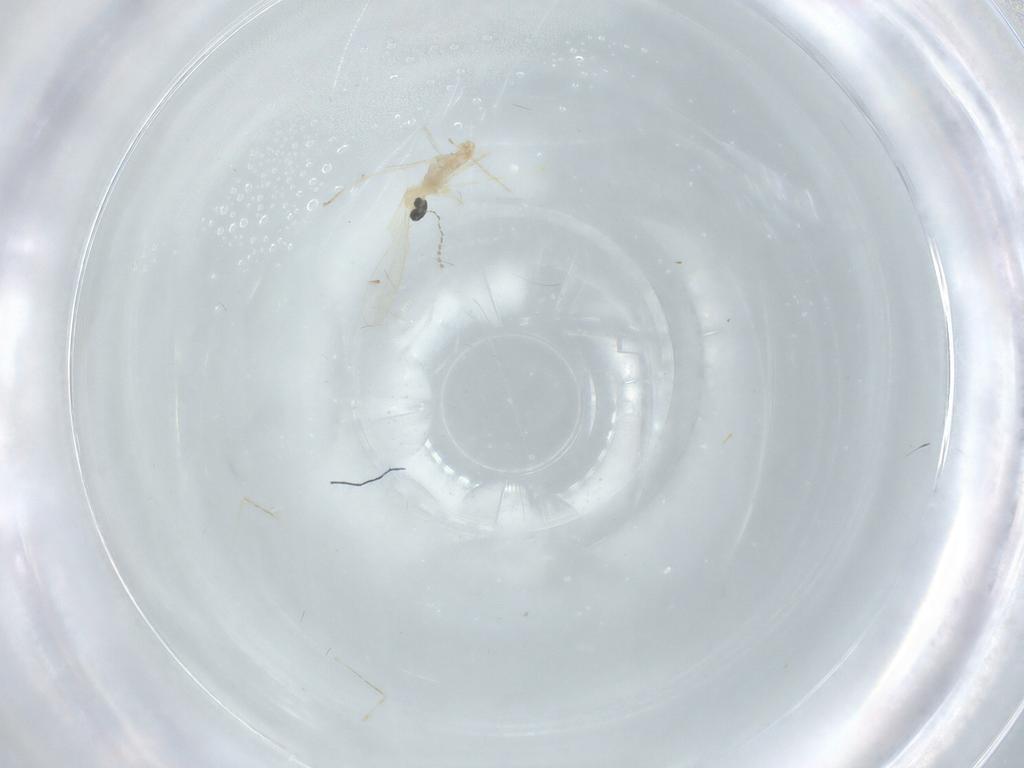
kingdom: Animalia
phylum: Arthropoda
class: Insecta
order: Diptera
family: Cecidomyiidae
